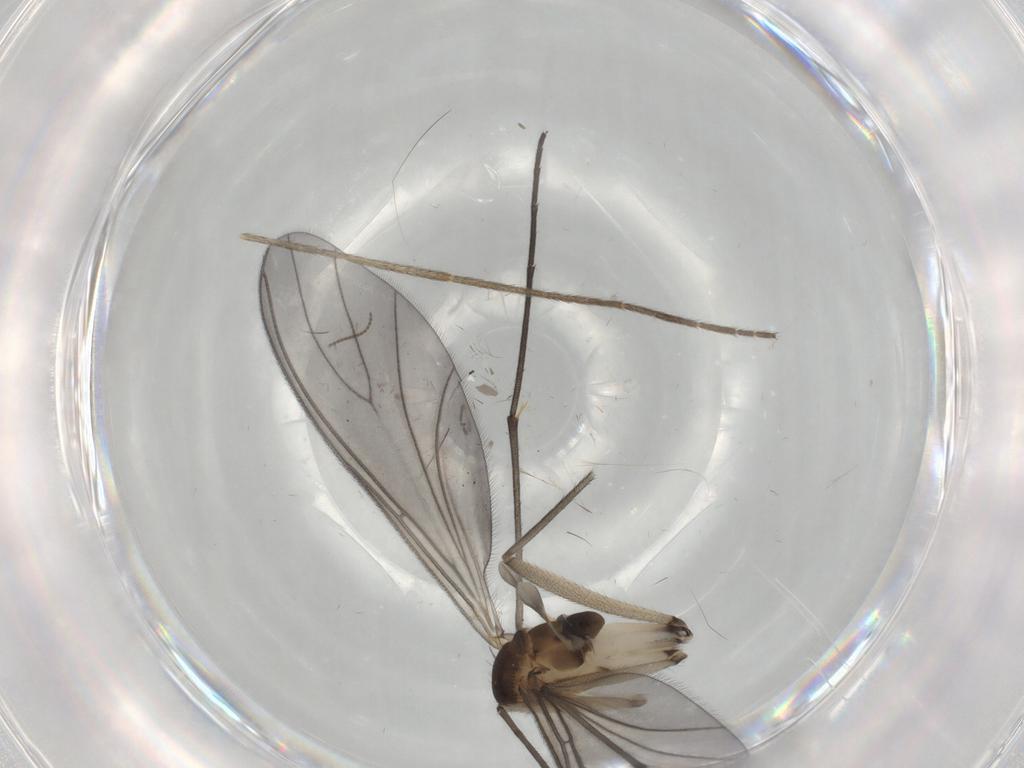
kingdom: Animalia
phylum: Arthropoda
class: Insecta
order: Diptera
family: Sciaridae
